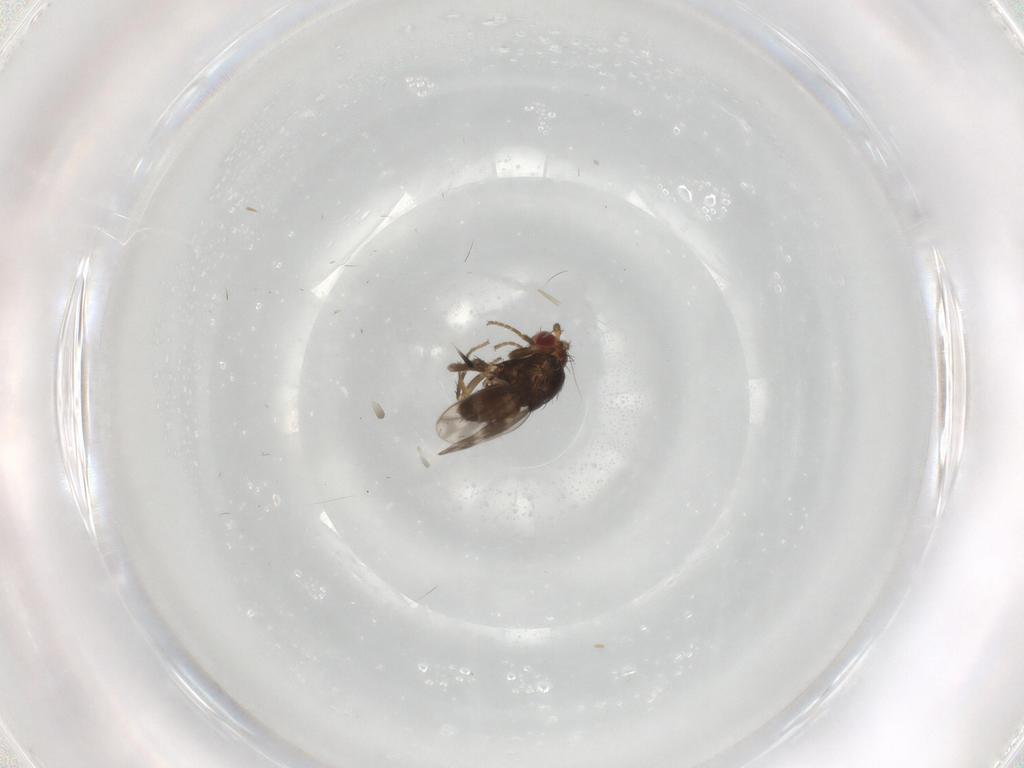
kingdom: Animalia
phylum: Arthropoda
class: Insecta
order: Diptera
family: Sphaeroceridae
